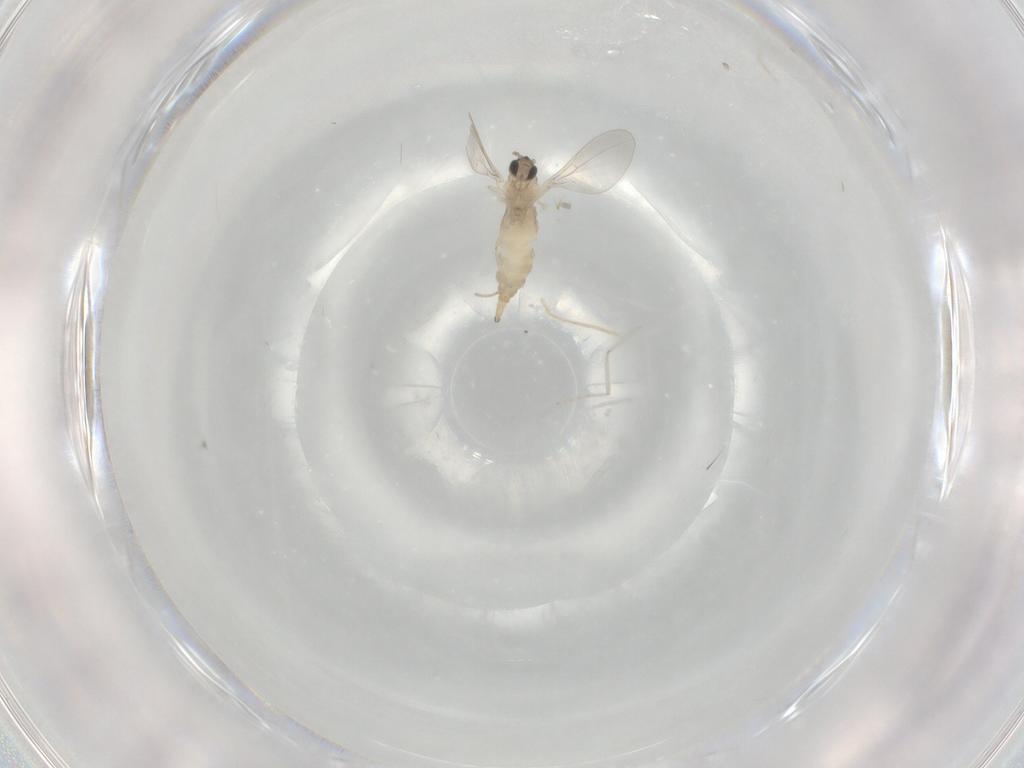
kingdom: Animalia
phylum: Arthropoda
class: Insecta
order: Diptera
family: Cecidomyiidae
